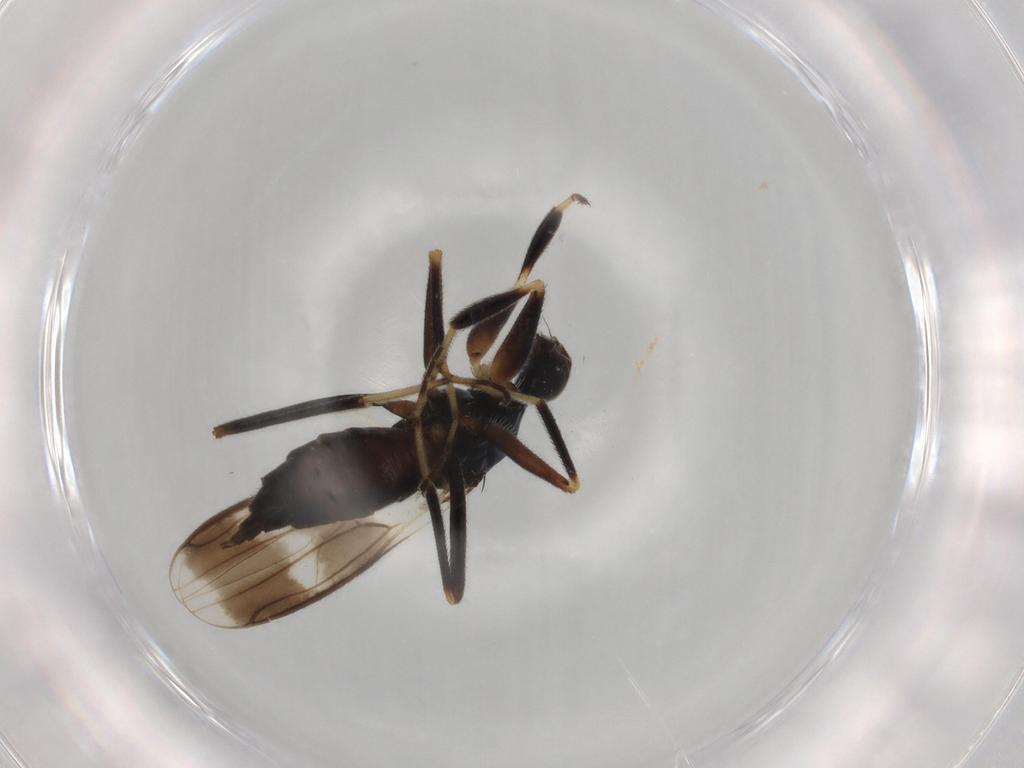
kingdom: Animalia
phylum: Arthropoda
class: Insecta
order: Diptera
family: Hybotidae
